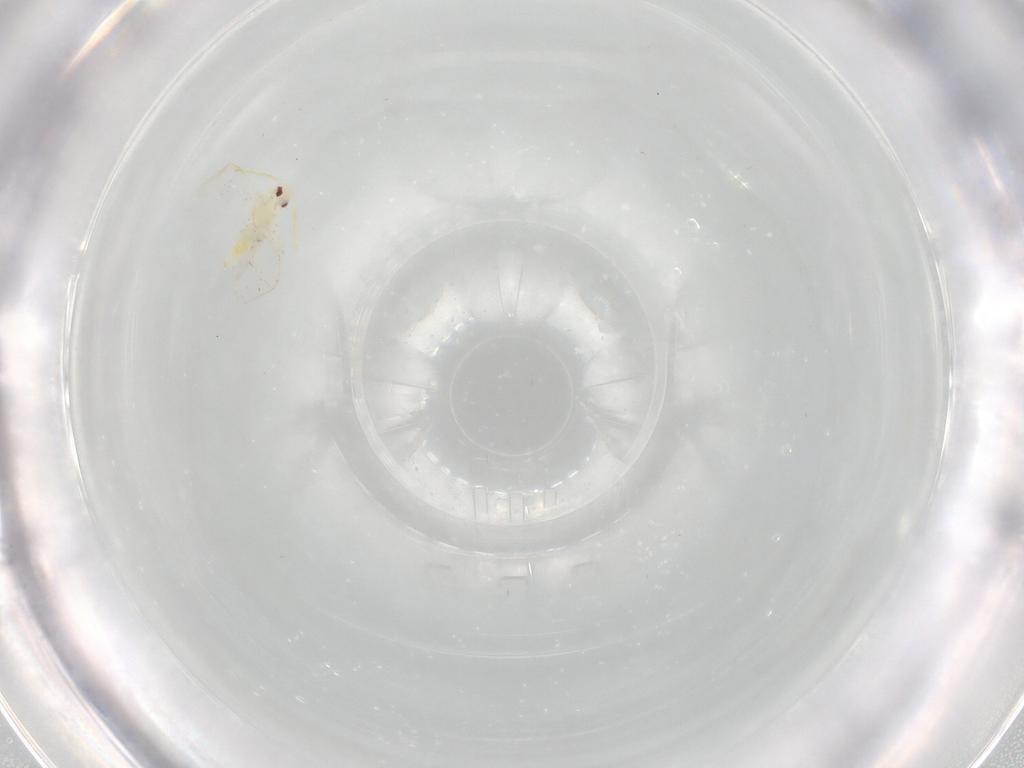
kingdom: Animalia
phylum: Arthropoda
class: Insecta
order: Hemiptera
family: Aleyrodidae
